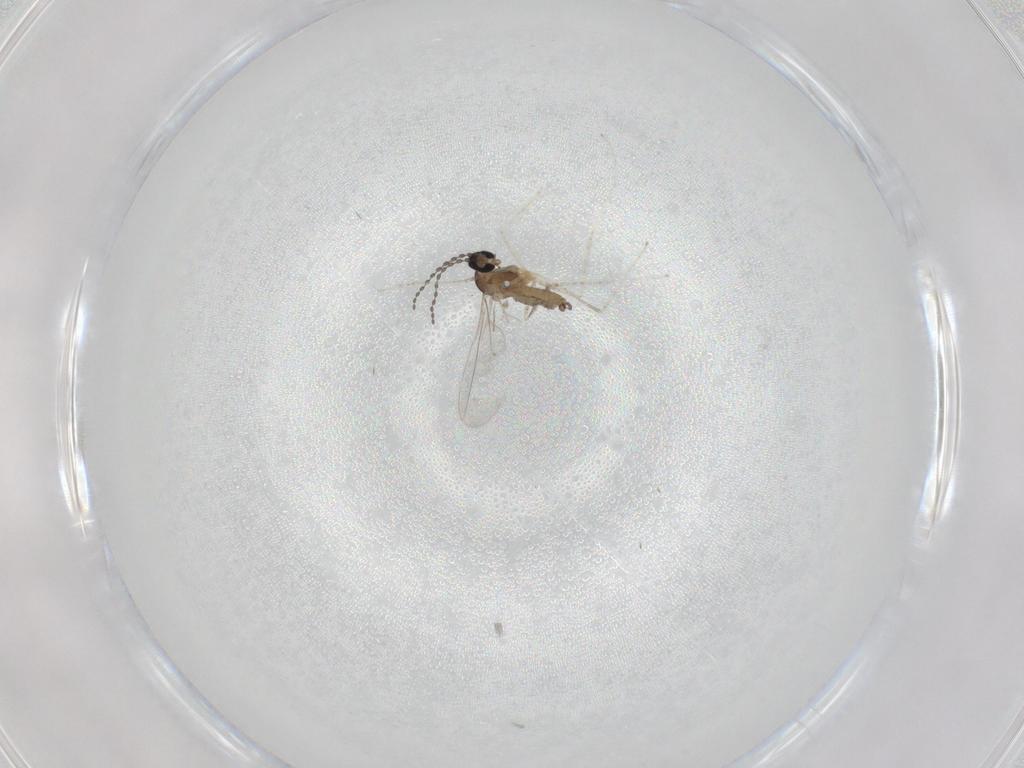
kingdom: Animalia
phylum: Arthropoda
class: Insecta
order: Diptera
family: Cecidomyiidae
